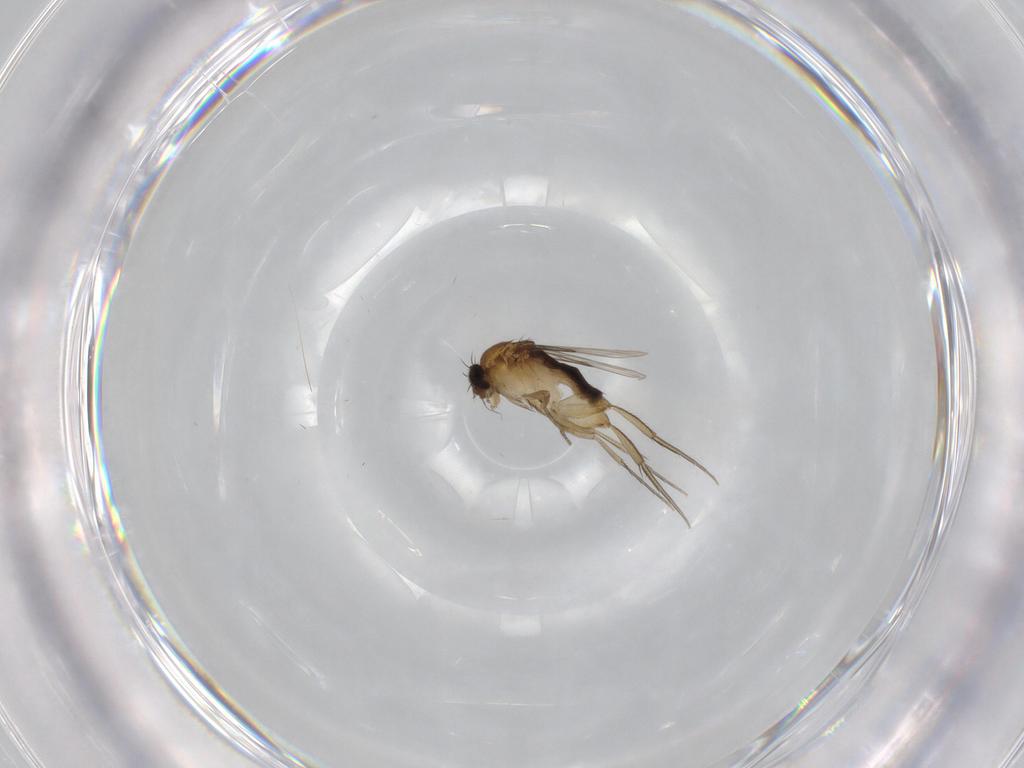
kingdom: Animalia
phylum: Arthropoda
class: Insecta
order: Diptera
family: Phoridae
